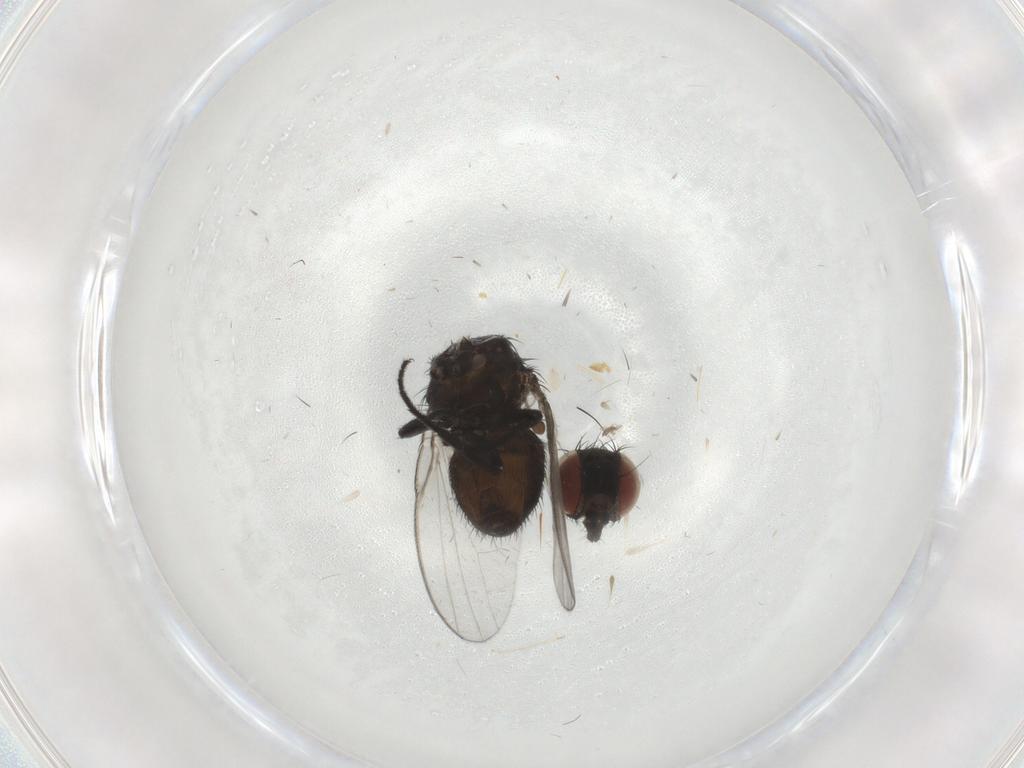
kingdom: Animalia
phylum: Arthropoda
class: Insecta
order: Diptera
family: Milichiidae
